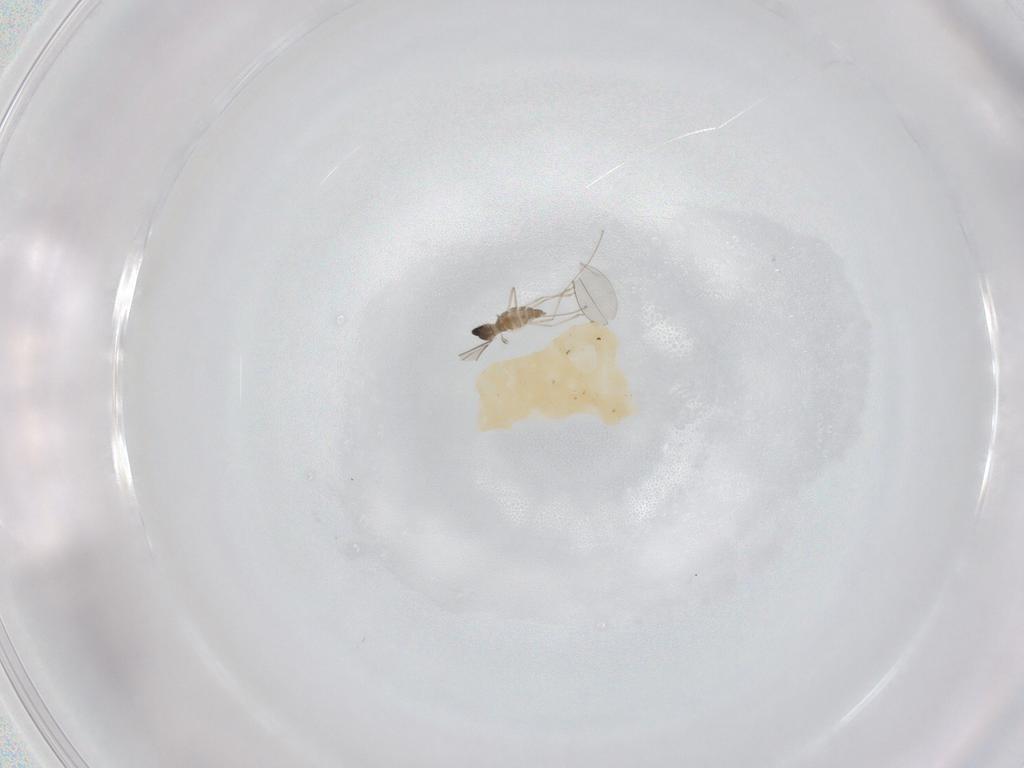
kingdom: Animalia
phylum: Arthropoda
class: Insecta
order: Diptera
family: Cecidomyiidae
